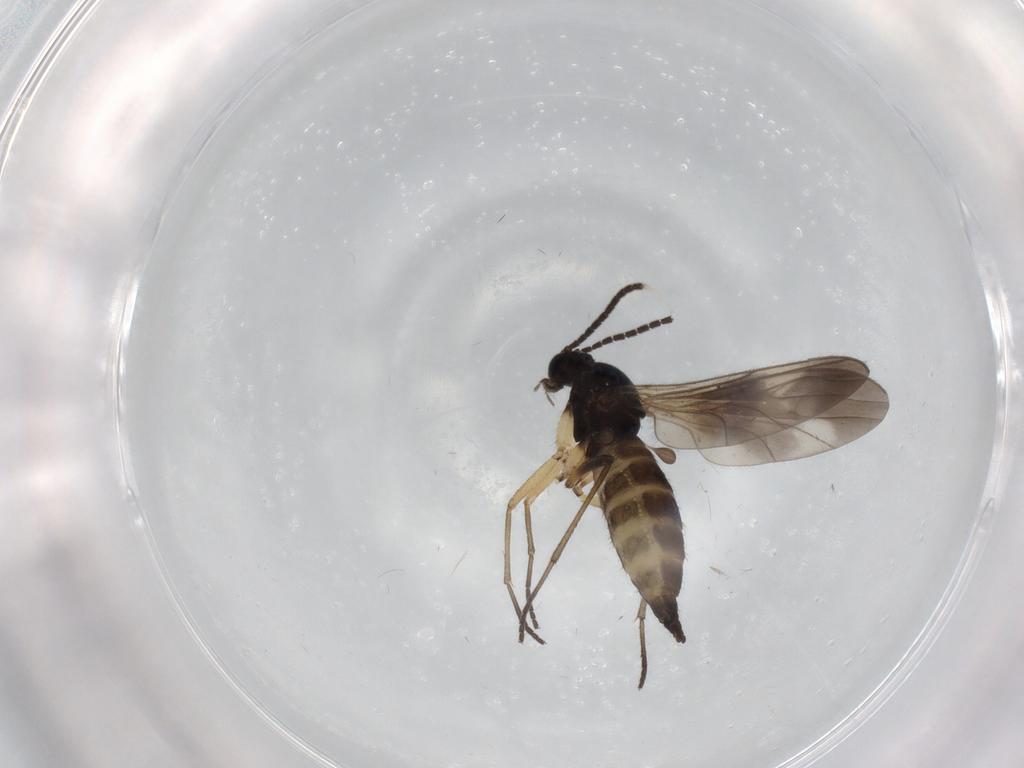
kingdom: Animalia
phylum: Arthropoda
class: Insecta
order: Diptera
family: Sciaridae
